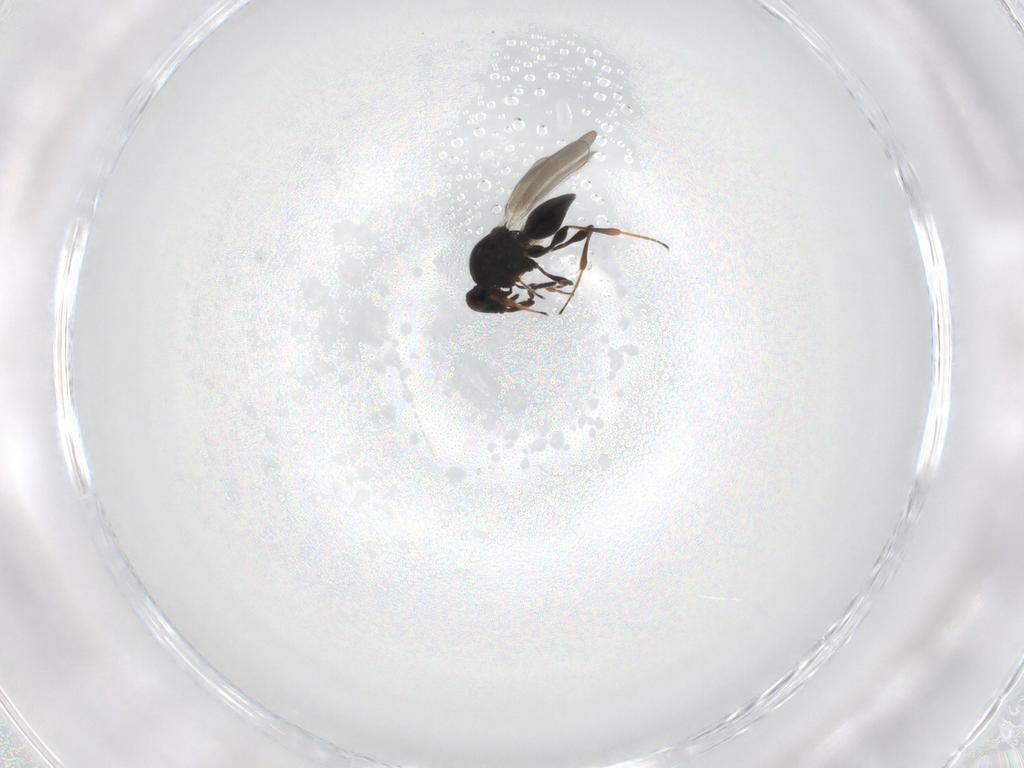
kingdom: Animalia
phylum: Arthropoda
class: Insecta
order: Hymenoptera
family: Platygastridae
